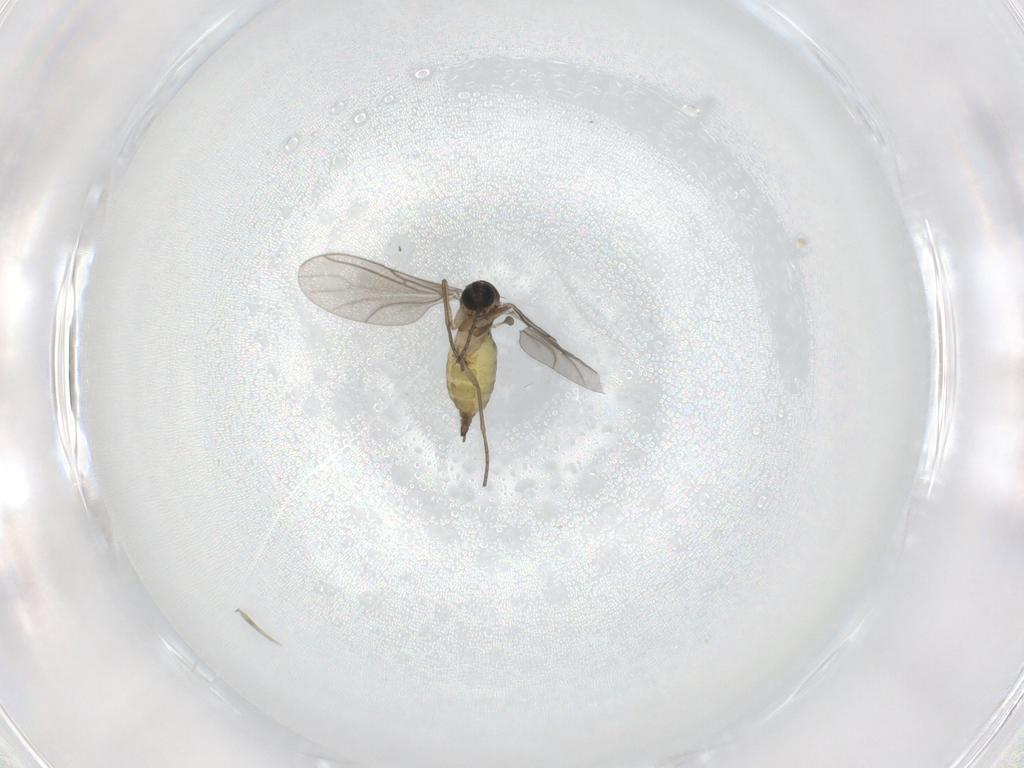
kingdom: Animalia
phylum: Arthropoda
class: Insecta
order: Diptera
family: Sciaridae
